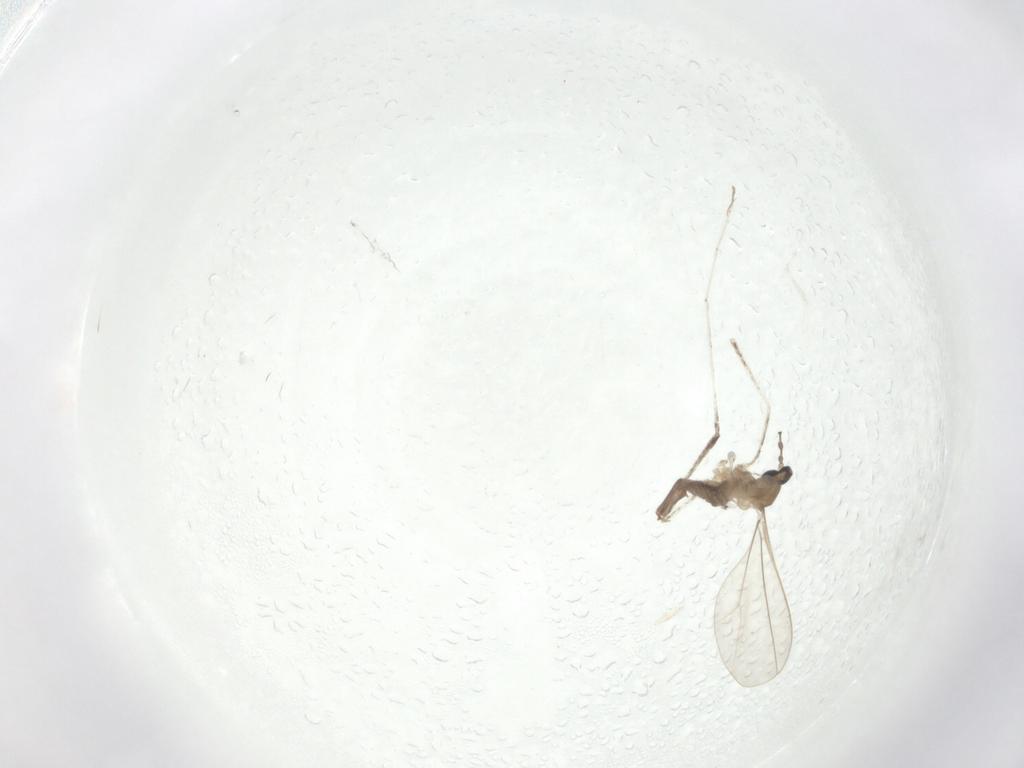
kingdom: Animalia
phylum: Arthropoda
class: Insecta
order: Diptera
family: Cecidomyiidae
